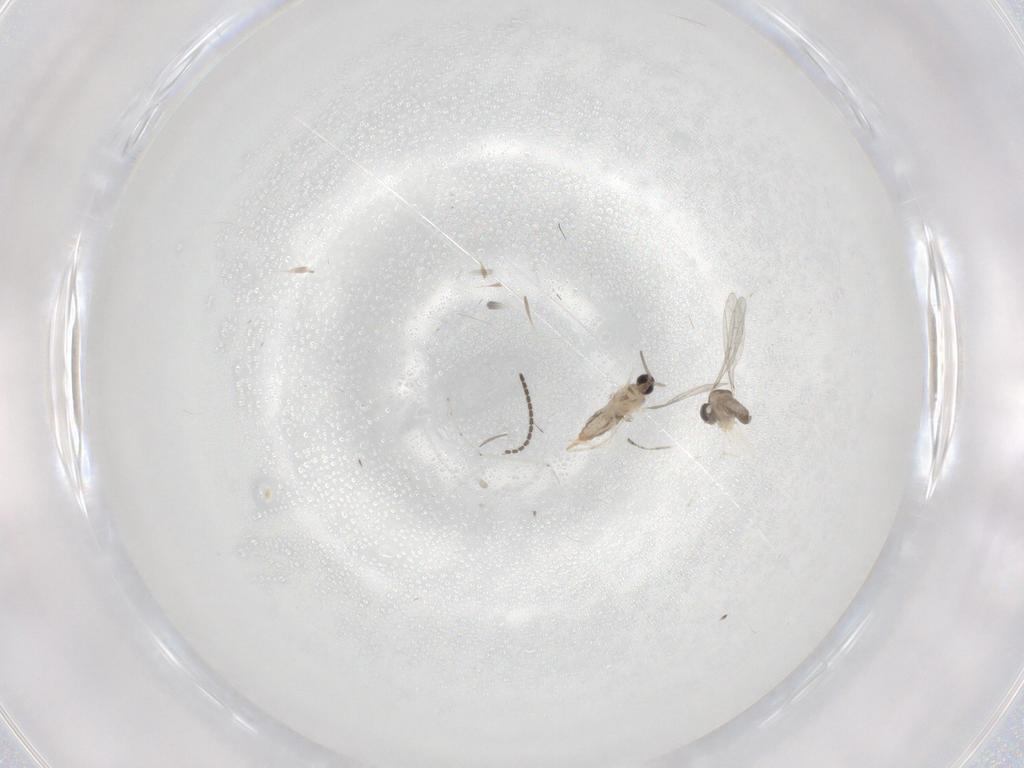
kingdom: Animalia
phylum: Arthropoda
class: Insecta
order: Diptera
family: Cecidomyiidae
